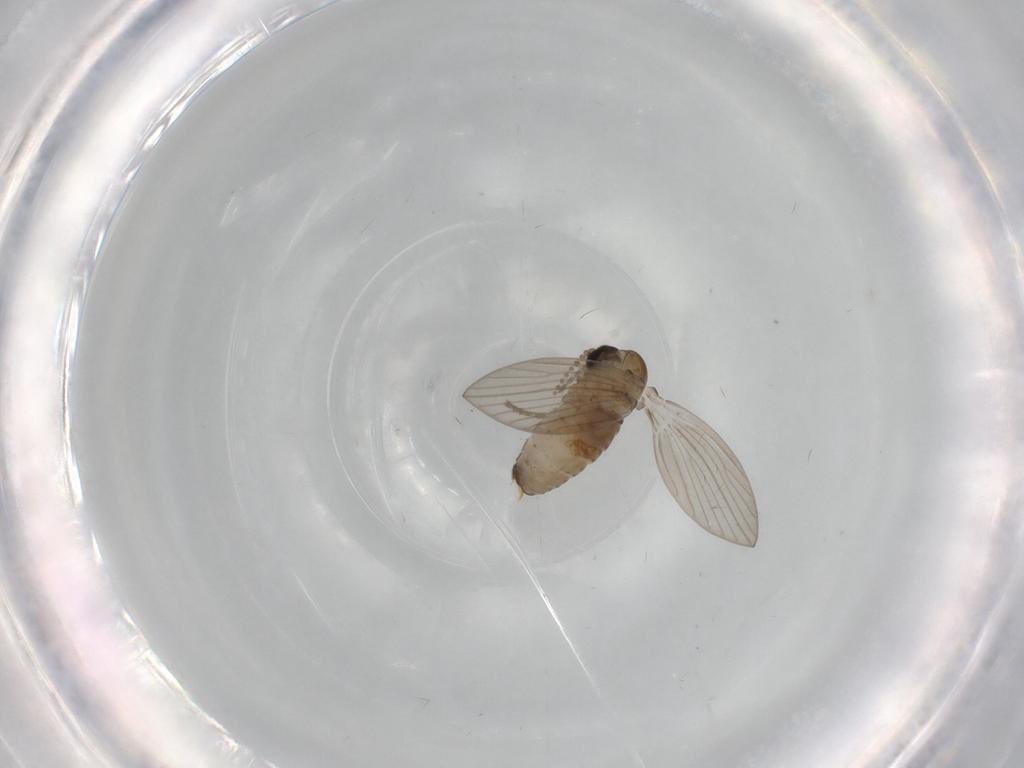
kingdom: Animalia
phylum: Arthropoda
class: Insecta
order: Diptera
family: Psychodidae
